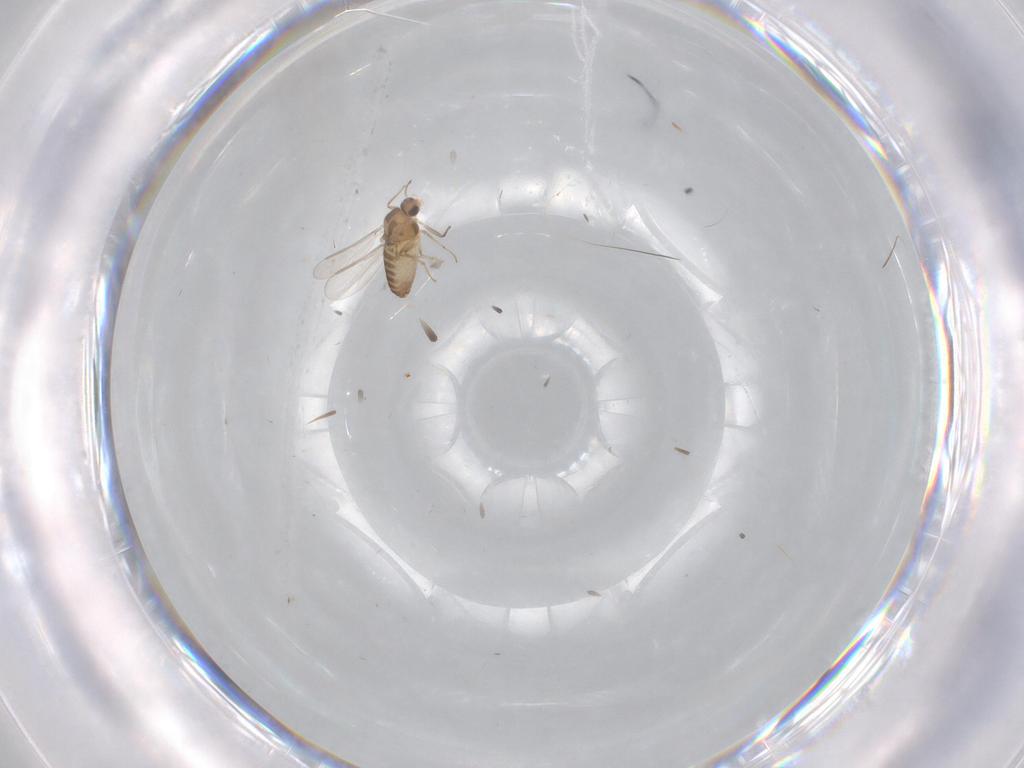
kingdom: Animalia
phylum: Arthropoda
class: Insecta
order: Diptera
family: Chironomidae
